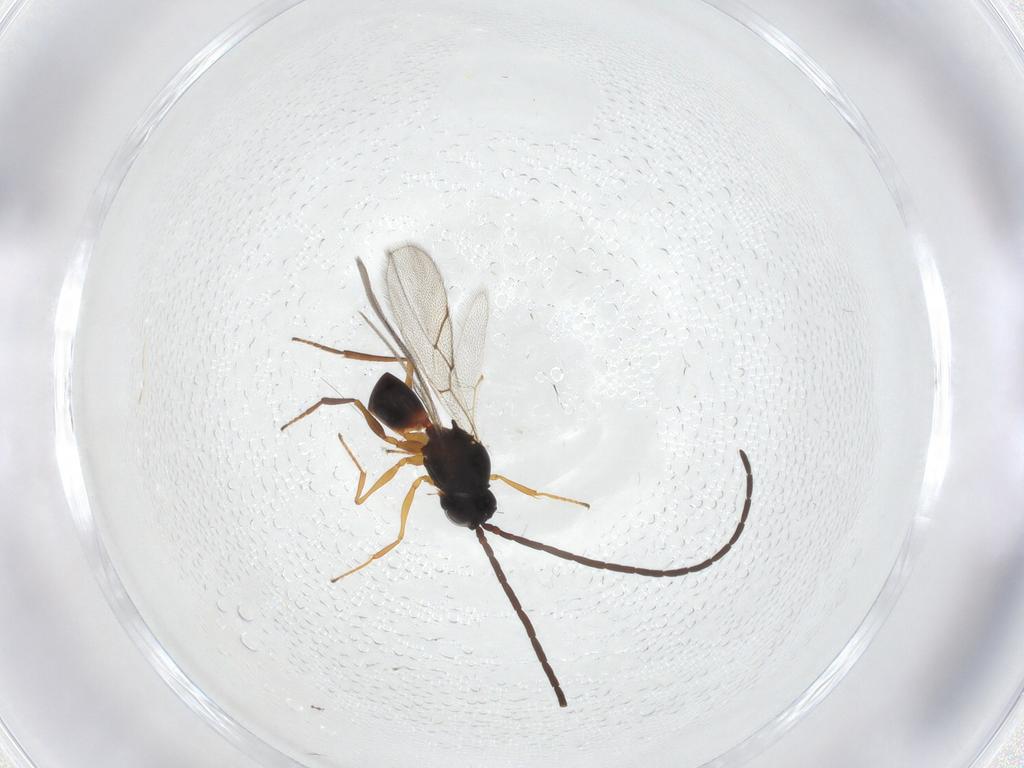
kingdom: Animalia
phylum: Arthropoda
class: Insecta
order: Hymenoptera
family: Figitidae
